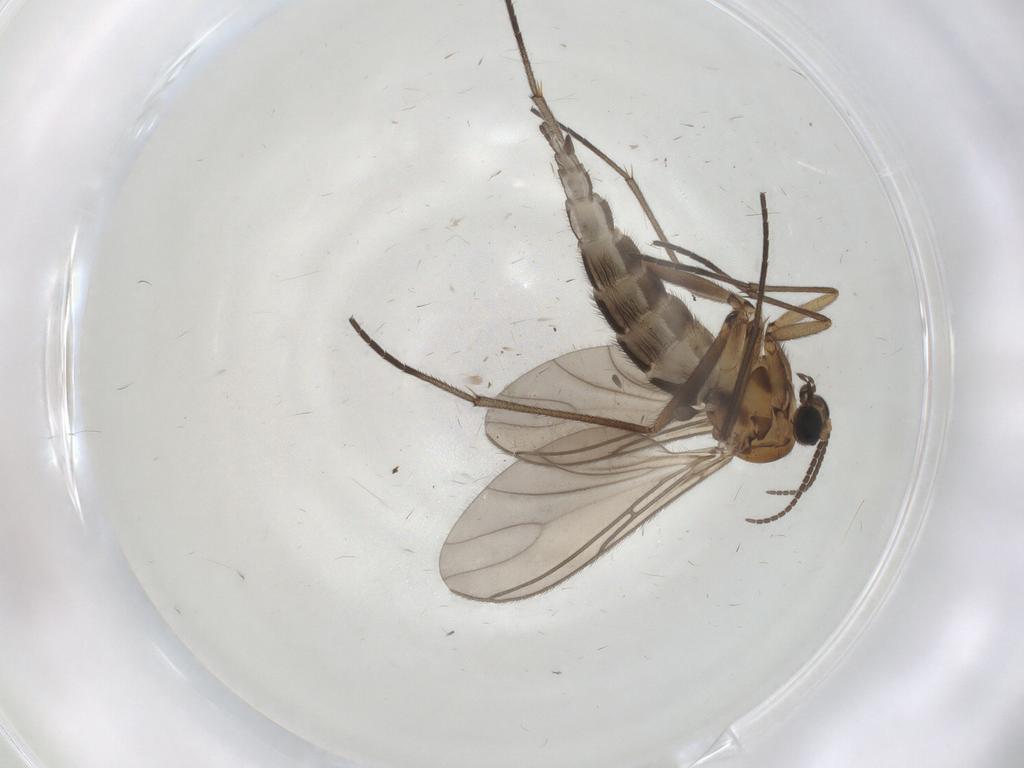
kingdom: Animalia
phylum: Arthropoda
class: Insecta
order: Diptera
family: Sciaridae
